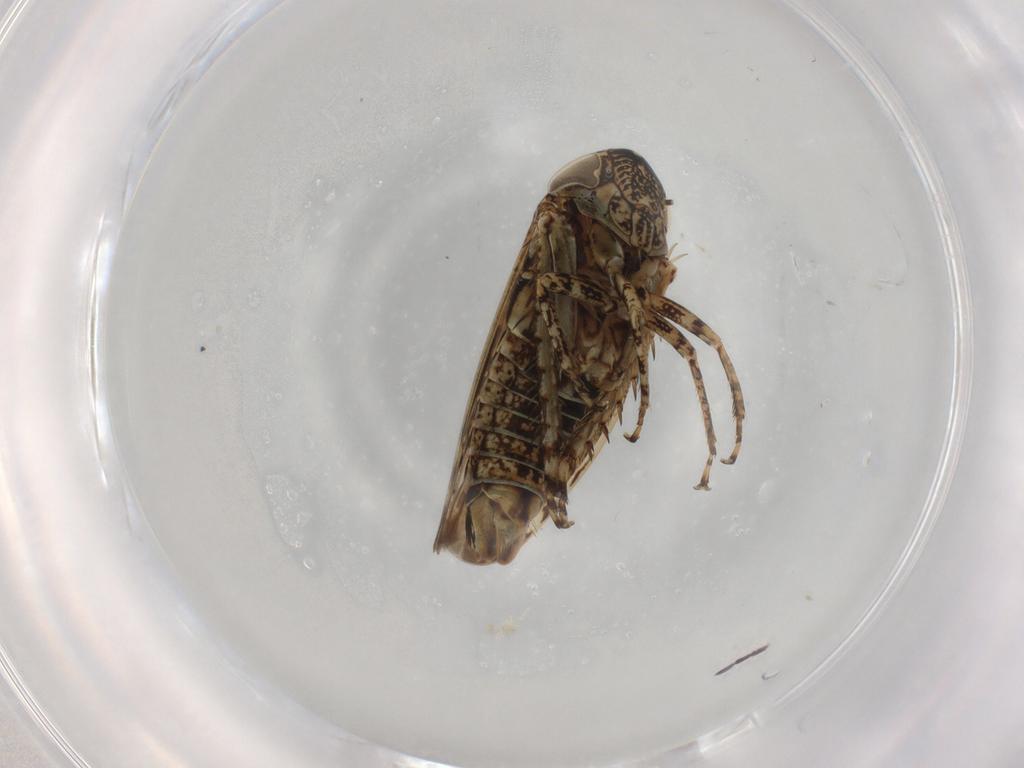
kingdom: Animalia
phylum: Arthropoda
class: Insecta
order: Hemiptera
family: Cicadellidae
